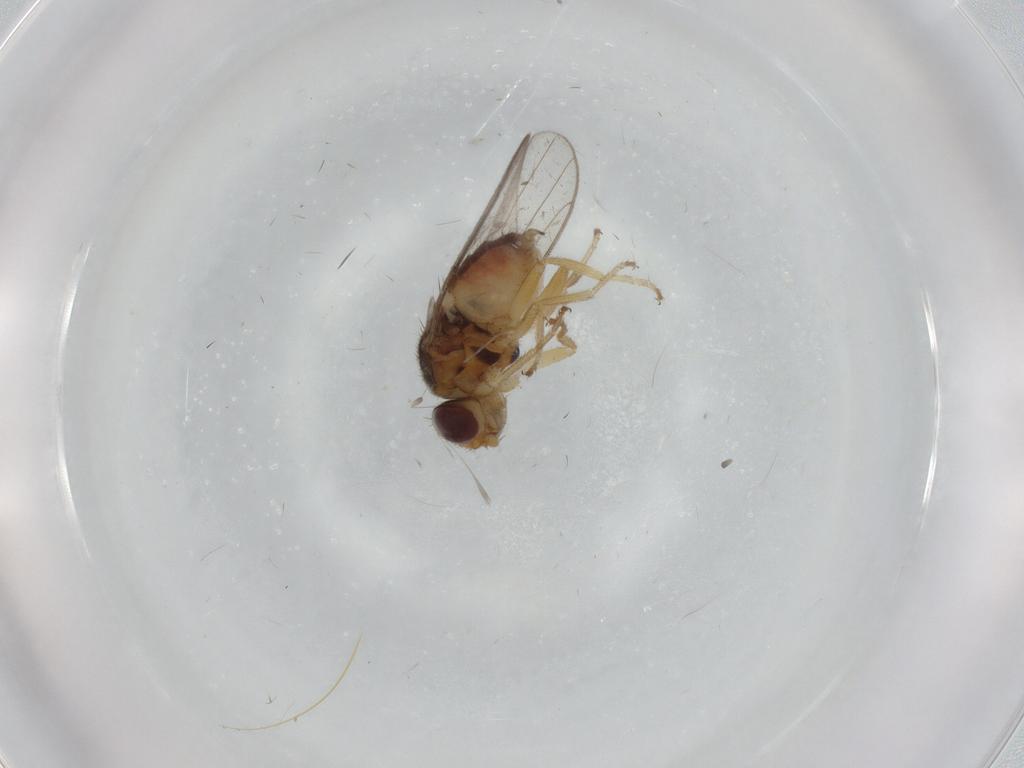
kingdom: Animalia
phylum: Arthropoda
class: Insecta
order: Diptera
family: Chloropidae
